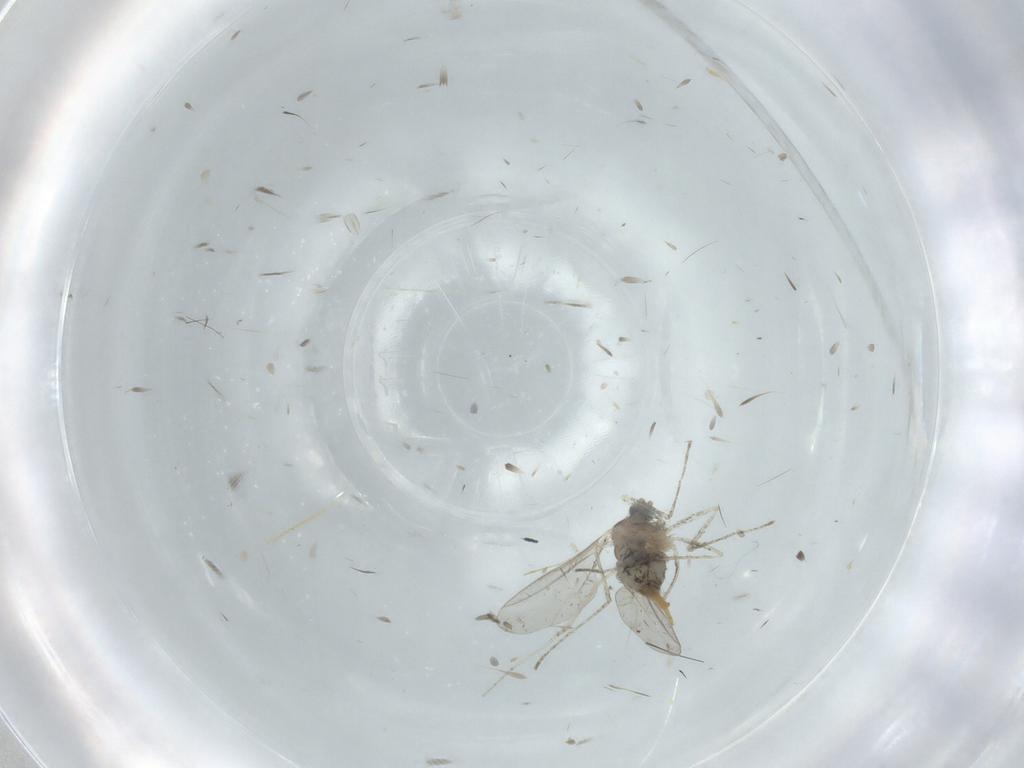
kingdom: Animalia
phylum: Arthropoda
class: Insecta
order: Diptera
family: Cecidomyiidae
